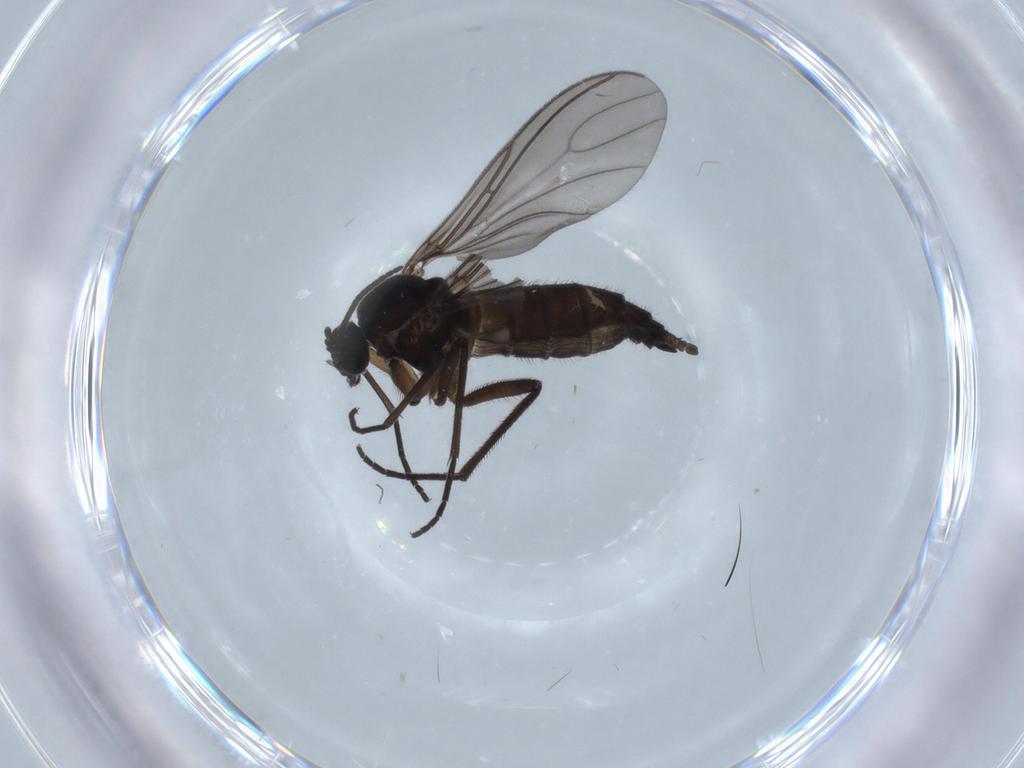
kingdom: Animalia
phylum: Arthropoda
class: Insecta
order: Diptera
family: Sciaridae
